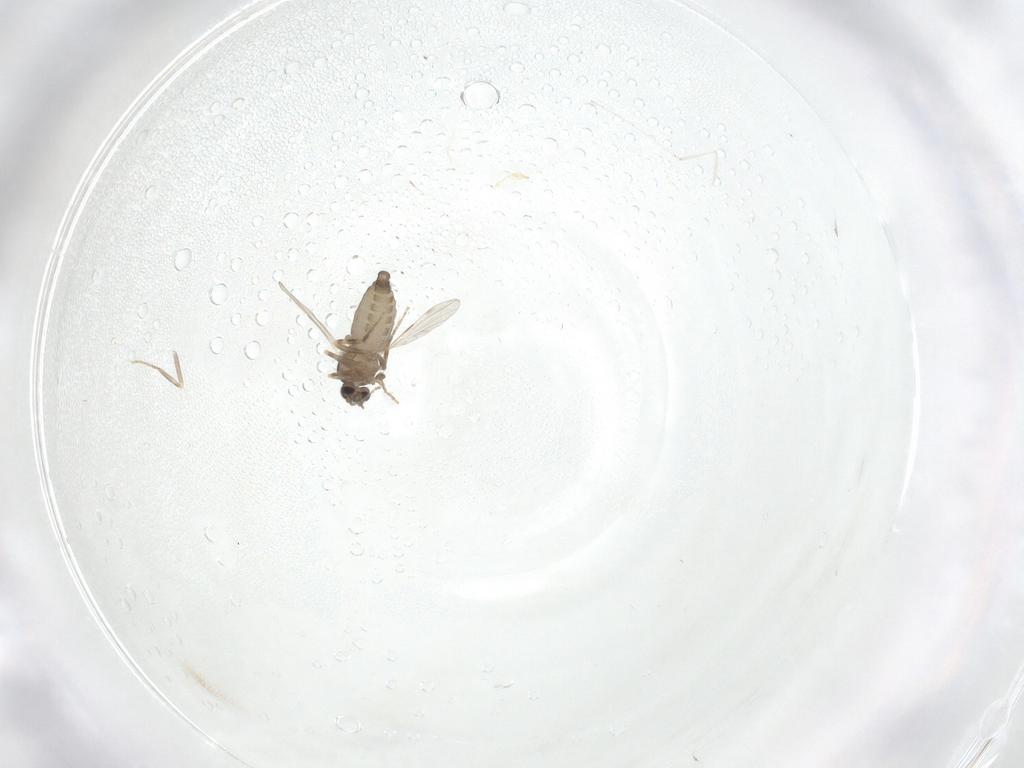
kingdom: Animalia
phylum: Arthropoda
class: Insecta
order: Diptera
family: Ceratopogonidae
